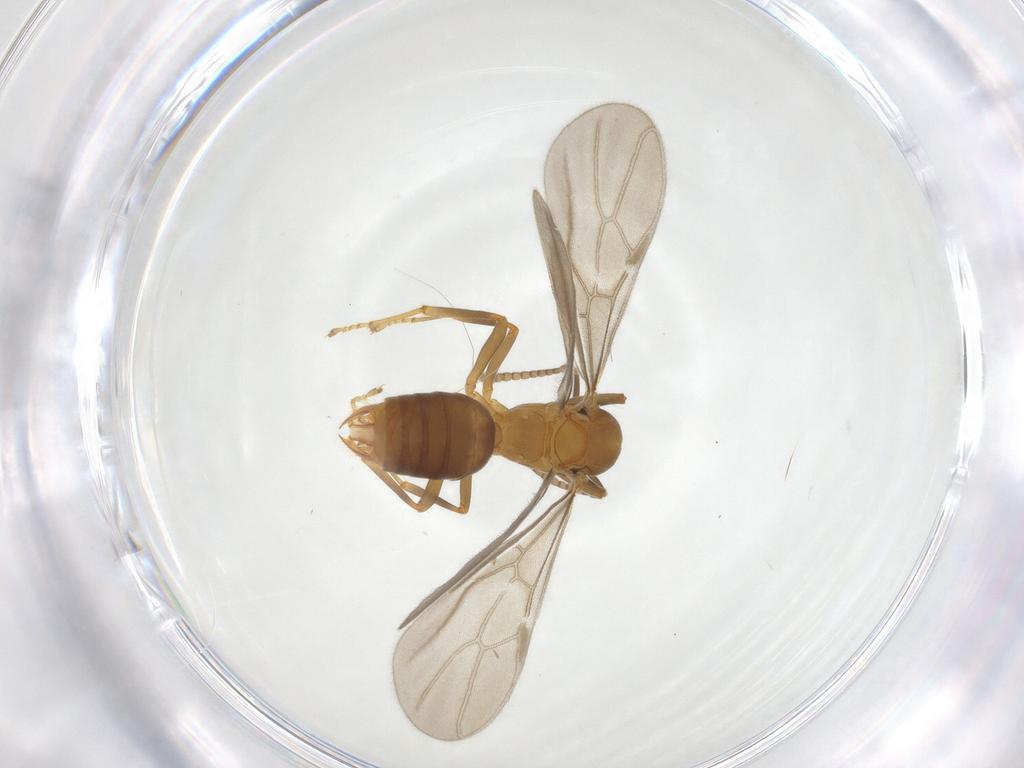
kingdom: Animalia
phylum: Arthropoda
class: Insecta
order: Hymenoptera
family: Formicidae
